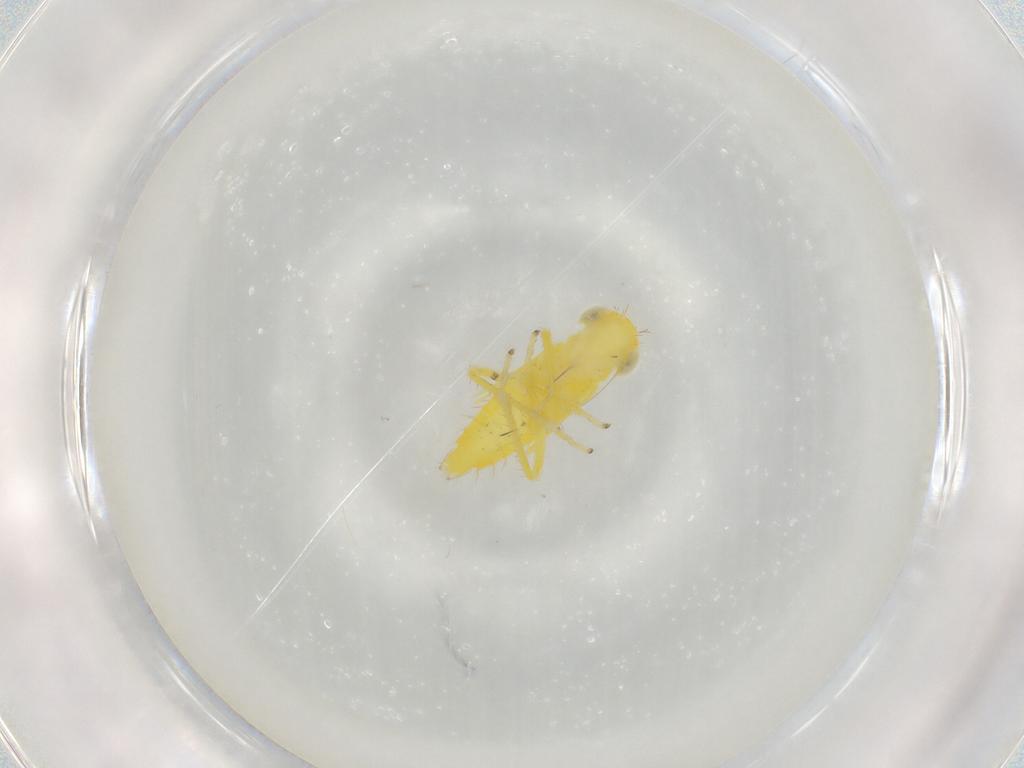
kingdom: Animalia
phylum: Arthropoda
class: Insecta
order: Hemiptera
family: Cicadellidae
